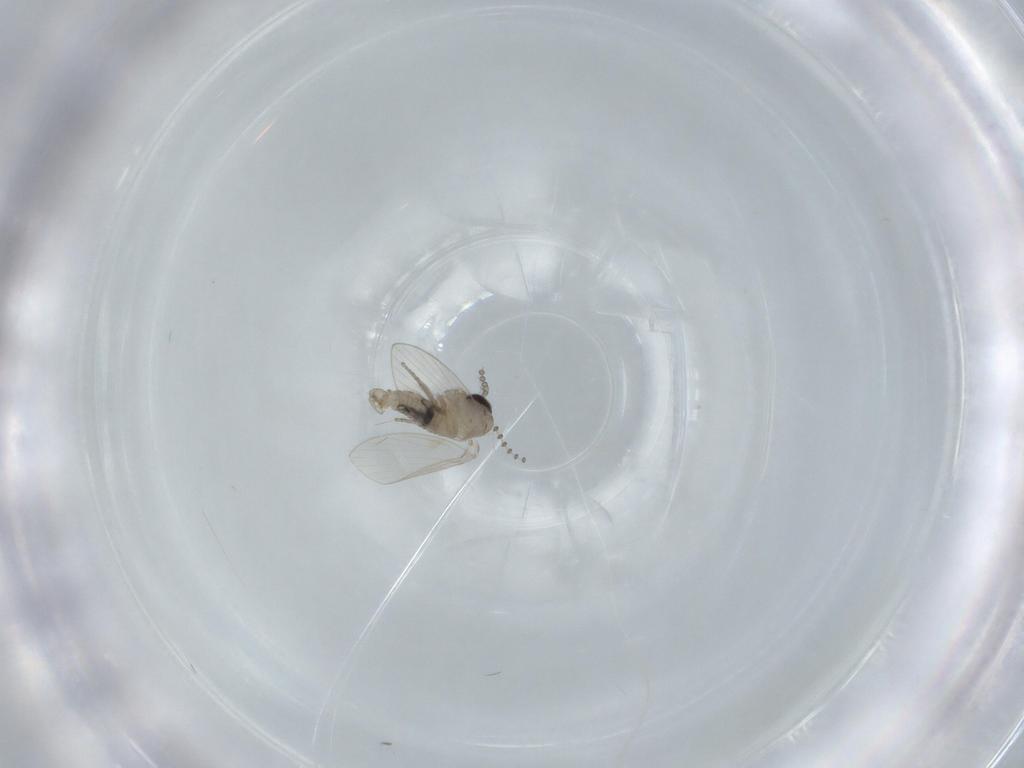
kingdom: Animalia
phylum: Arthropoda
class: Insecta
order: Diptera
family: Psychodidae
